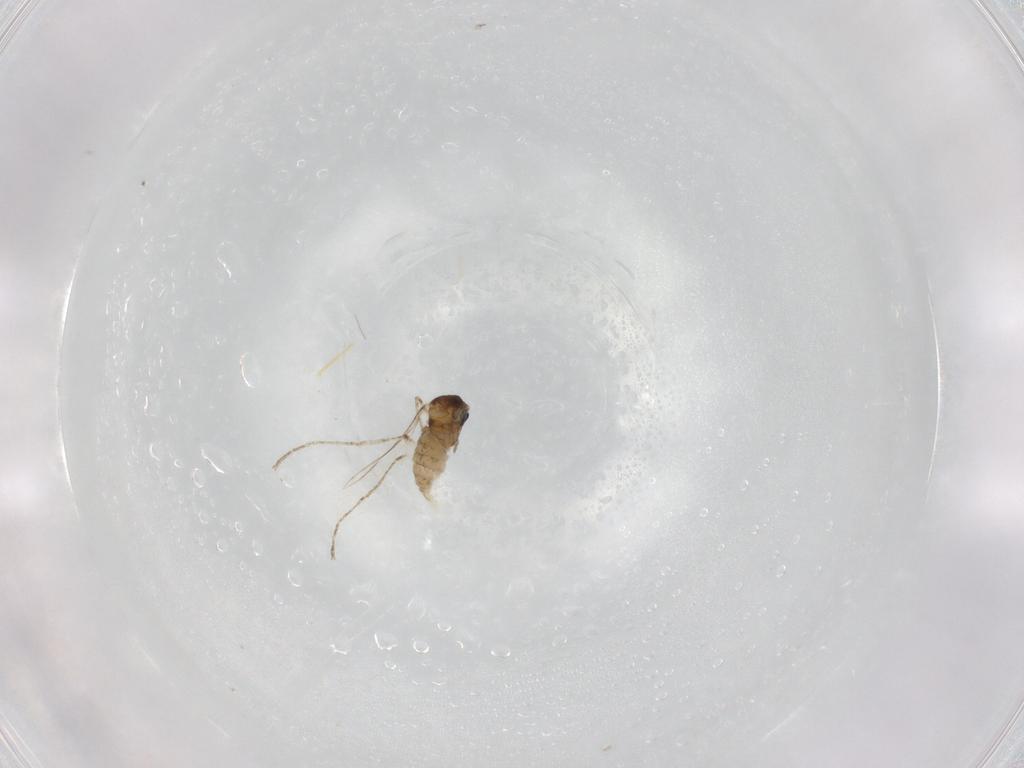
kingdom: Animalia
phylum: Arthropoda
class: Insecta
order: Diptera
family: Cecidomyiidae
